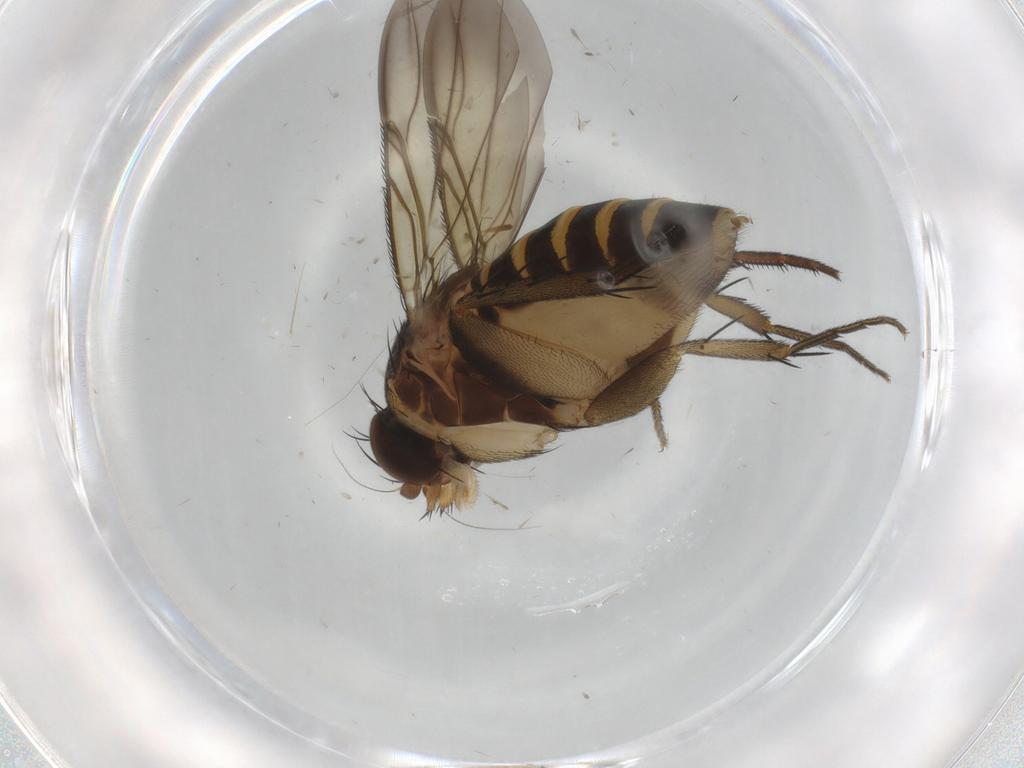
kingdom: Animalia
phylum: Arthropoda
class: Insecta
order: Diptera
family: Phoridae
